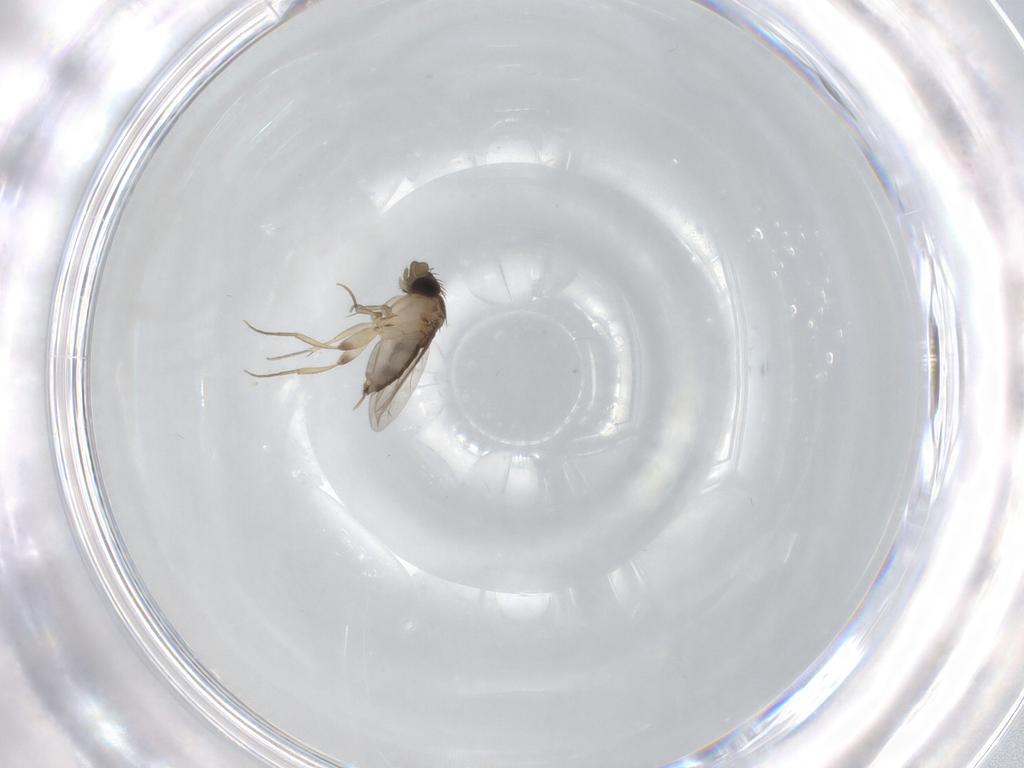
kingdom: Animalia
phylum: Arthropoda
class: Insecta
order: Diptera
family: Phoridae
